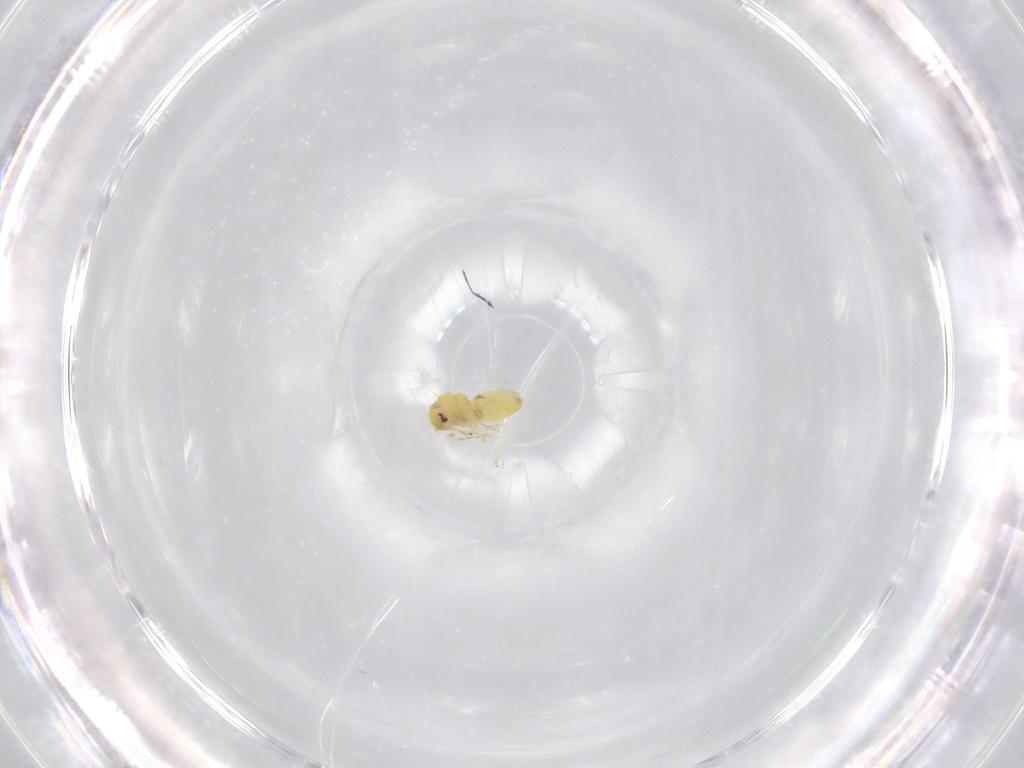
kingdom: Animalia
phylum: Arthropoda
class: Insecta
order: Hemiptera
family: Aleyrodidae
